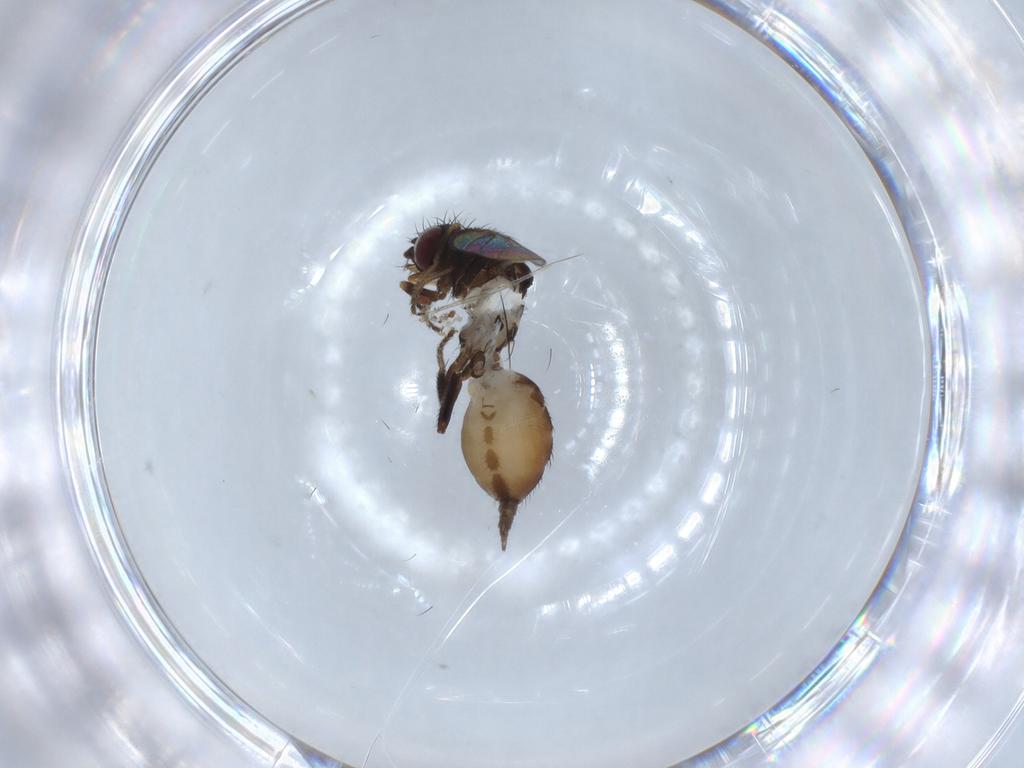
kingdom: Animalia
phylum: Arthropoda
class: Insecta
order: Diptera
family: Milichiidae
